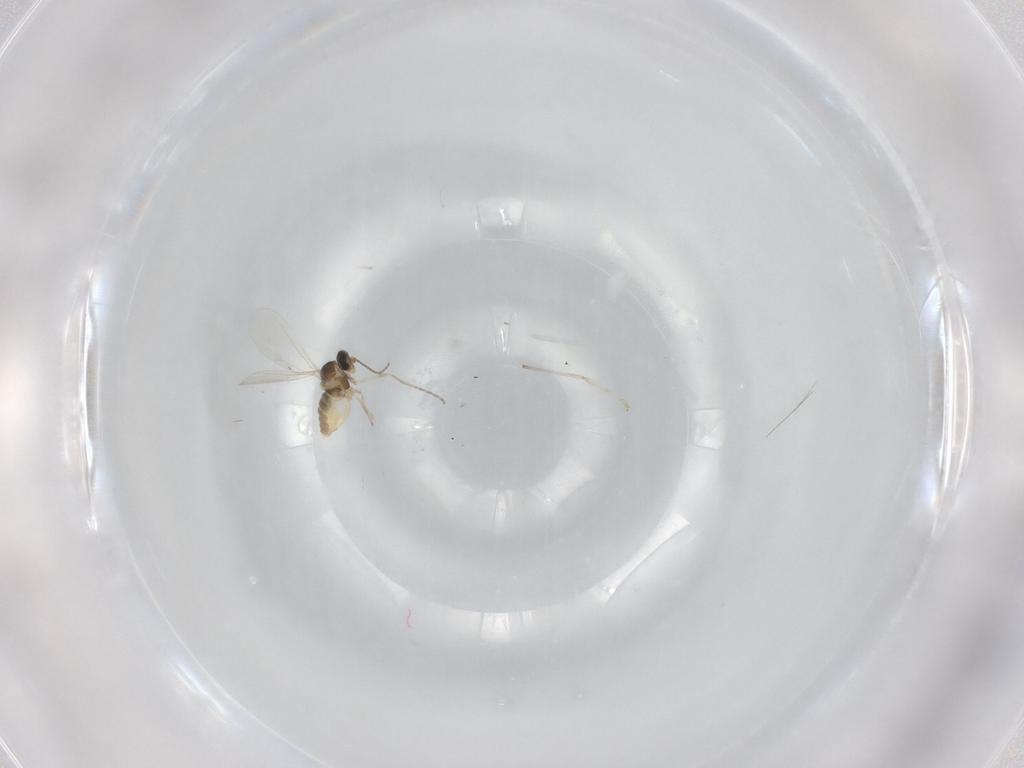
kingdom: Animalia
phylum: Arthropoda
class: Insecta
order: Diptera
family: Cecidomyiidae
